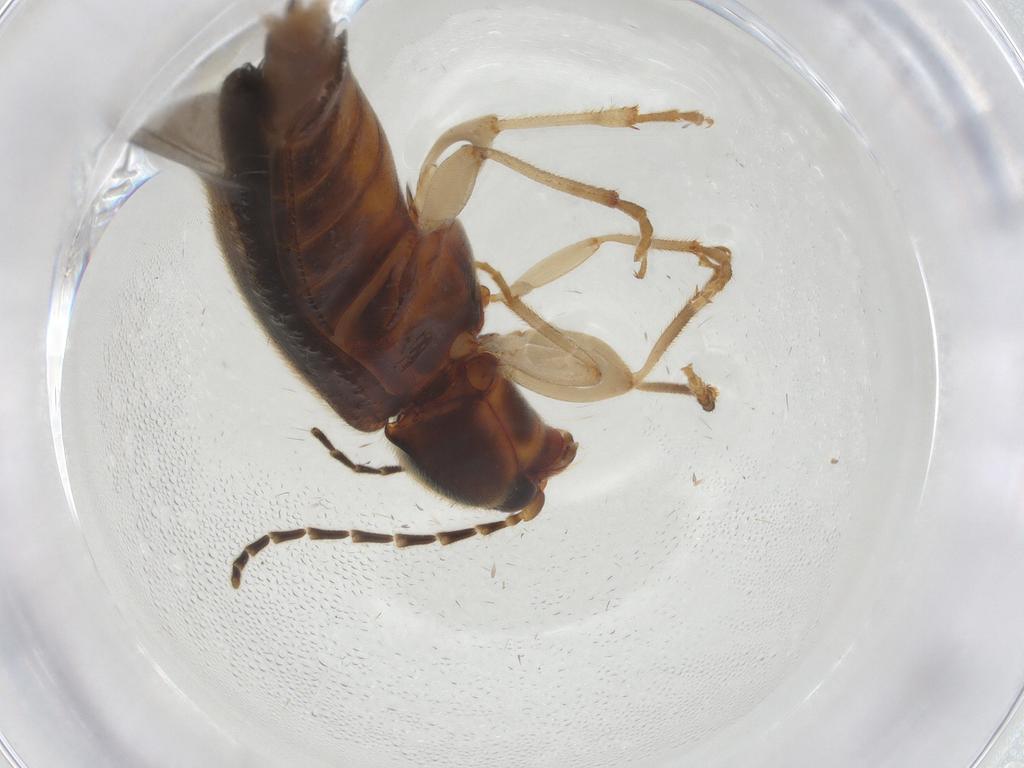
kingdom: Animalia
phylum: Arthropoda
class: Insecta
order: Coleoptera
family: Elateridae
